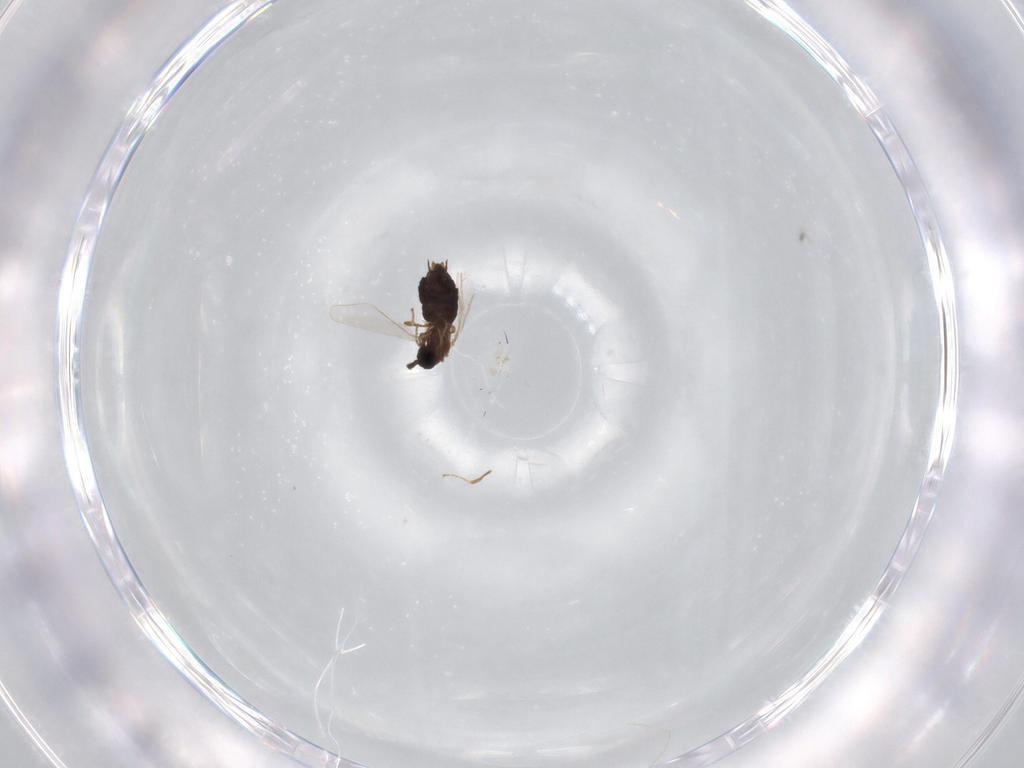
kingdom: Animalia
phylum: Arthropoda
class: Insecta
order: Diptera
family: Scatopsidae
